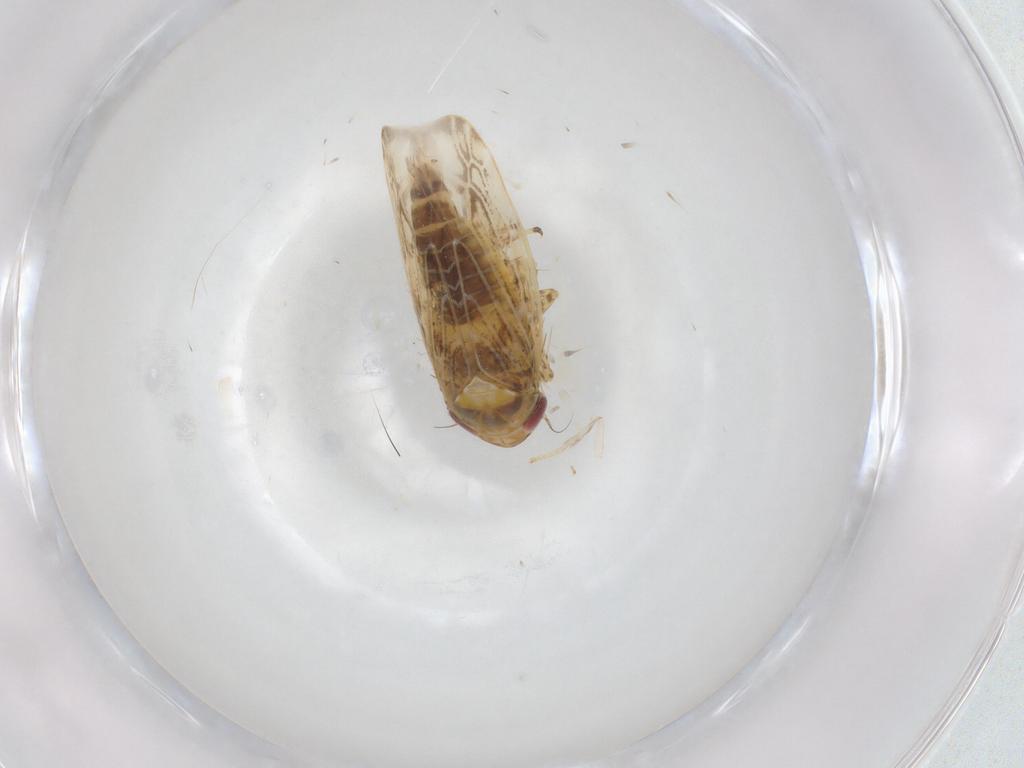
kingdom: Animalia
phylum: Arthropoda
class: Insecta
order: Hemiptera
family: Cicadellidae
